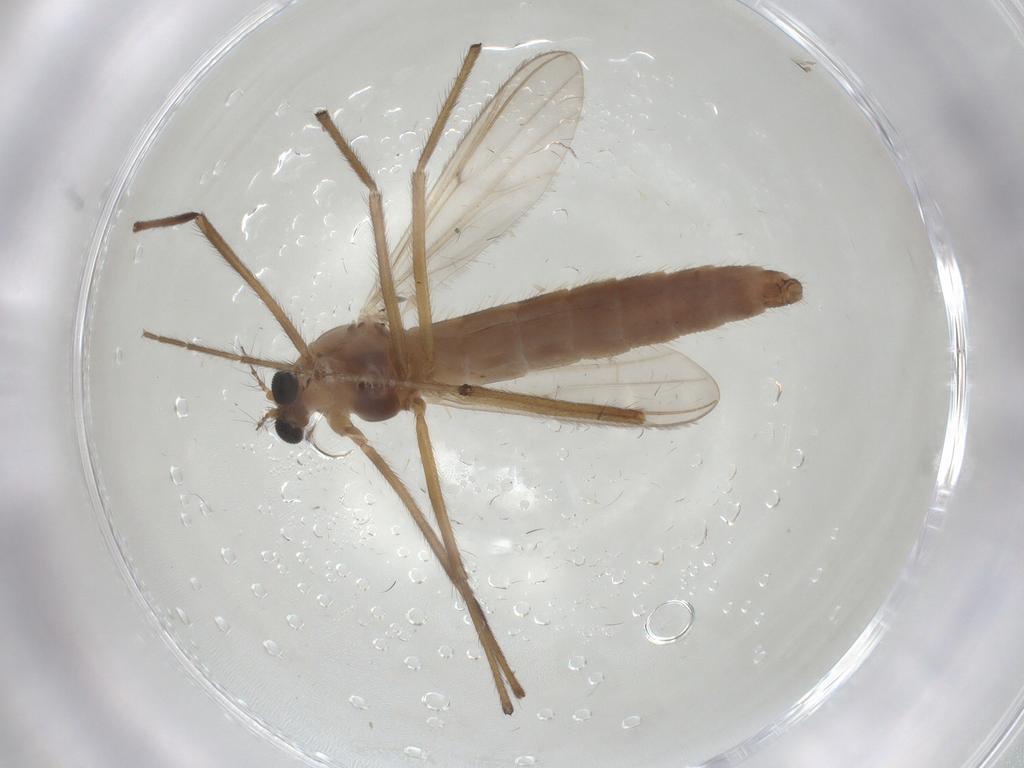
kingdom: Animalia
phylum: Arthropoda
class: Insecta
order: Diptera
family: Chironomidae
